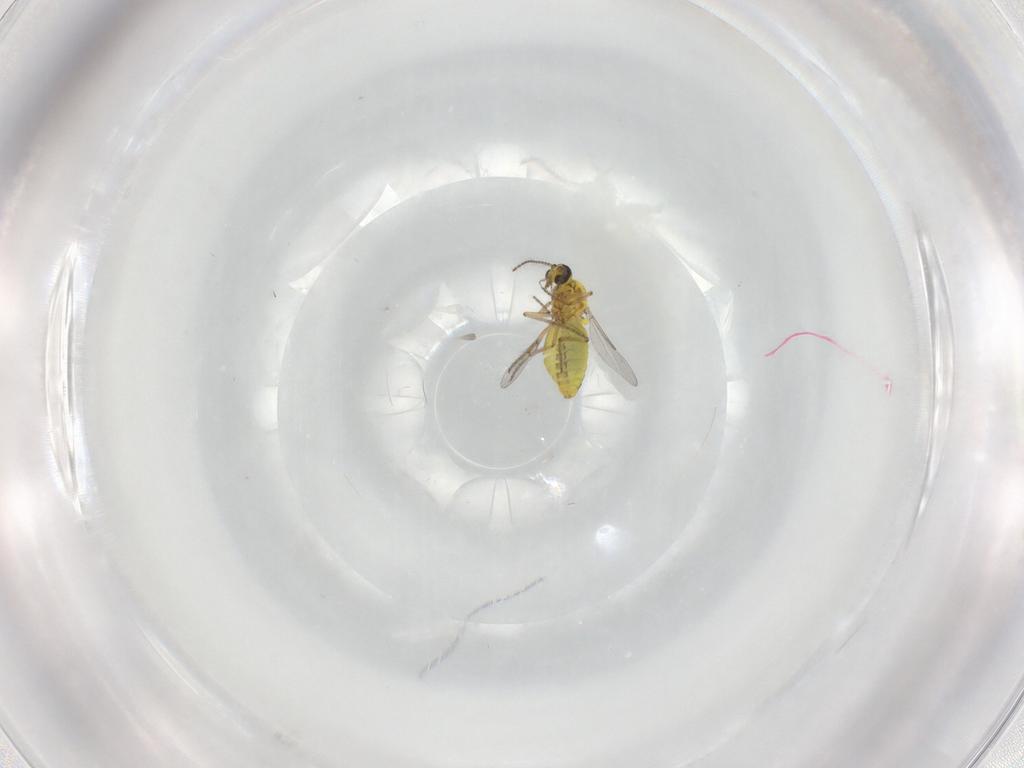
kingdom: Animalia
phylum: Arthropoda
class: Insecta
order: Diptera
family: Ceratopogonidae
